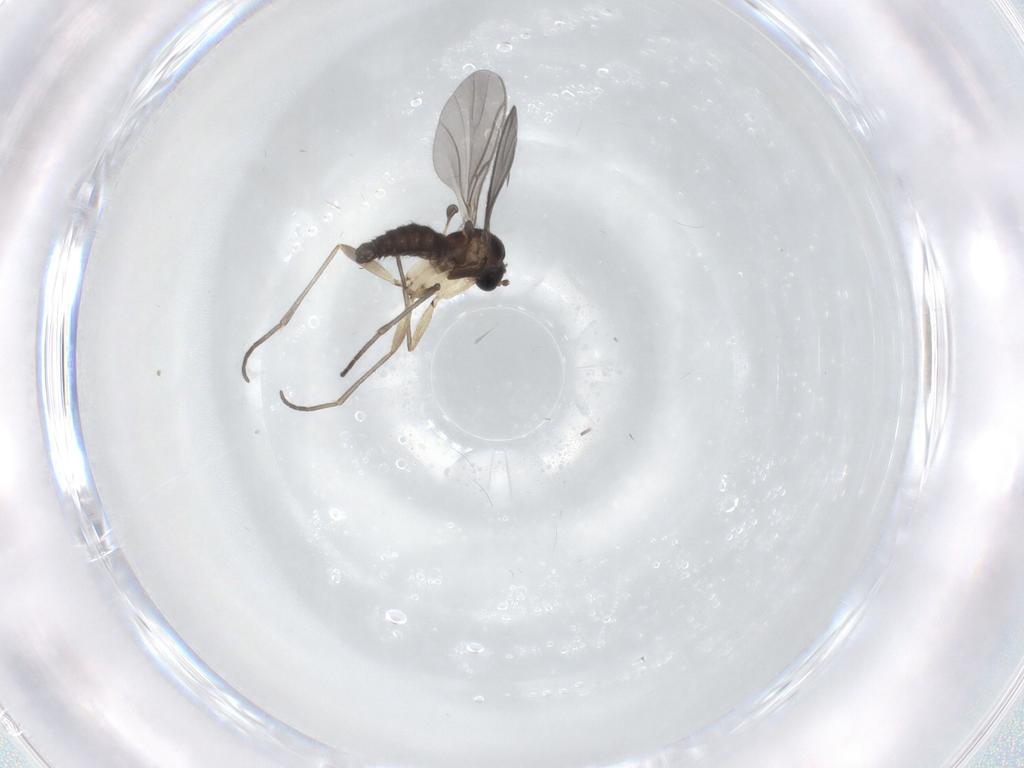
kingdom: Animalia
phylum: Arthropoda
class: Insecta
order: Diptera
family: Sciaridae
